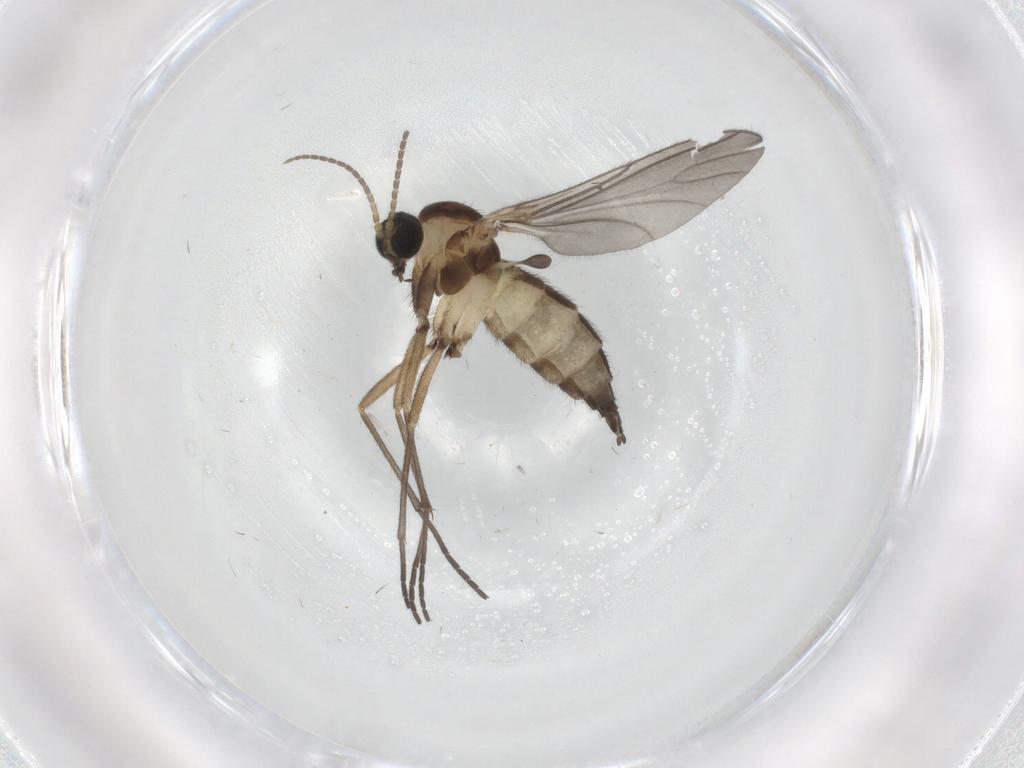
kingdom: Animalia
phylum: Arthropoda
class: Insecta
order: Diptera
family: Sciaridae
